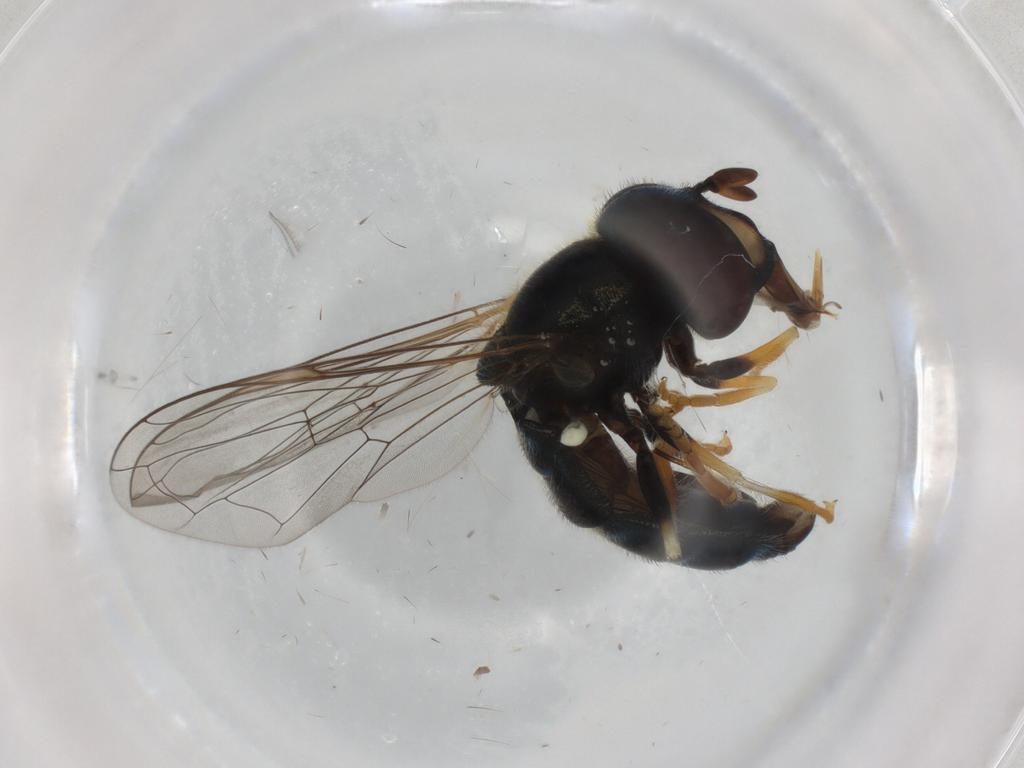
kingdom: Animalia
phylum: Arthropoda
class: Insecta
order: Diptera
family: Syrphidae
